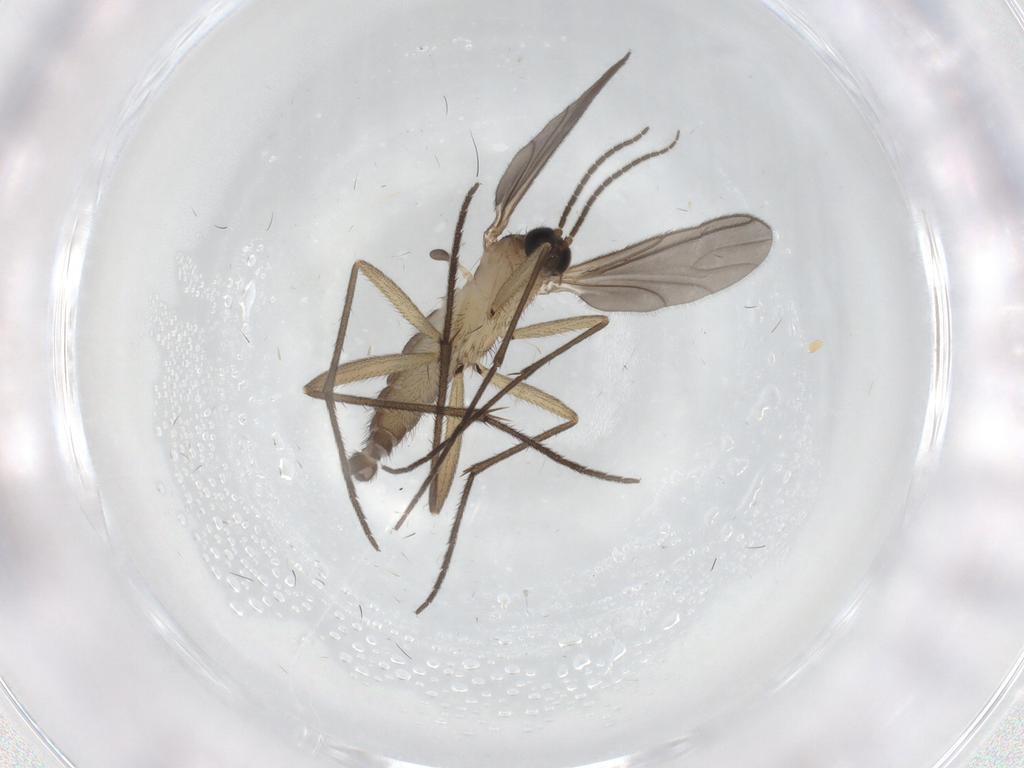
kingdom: Animalia
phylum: Arthropoda
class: Insecta
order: Diptera
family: Sciaridae
